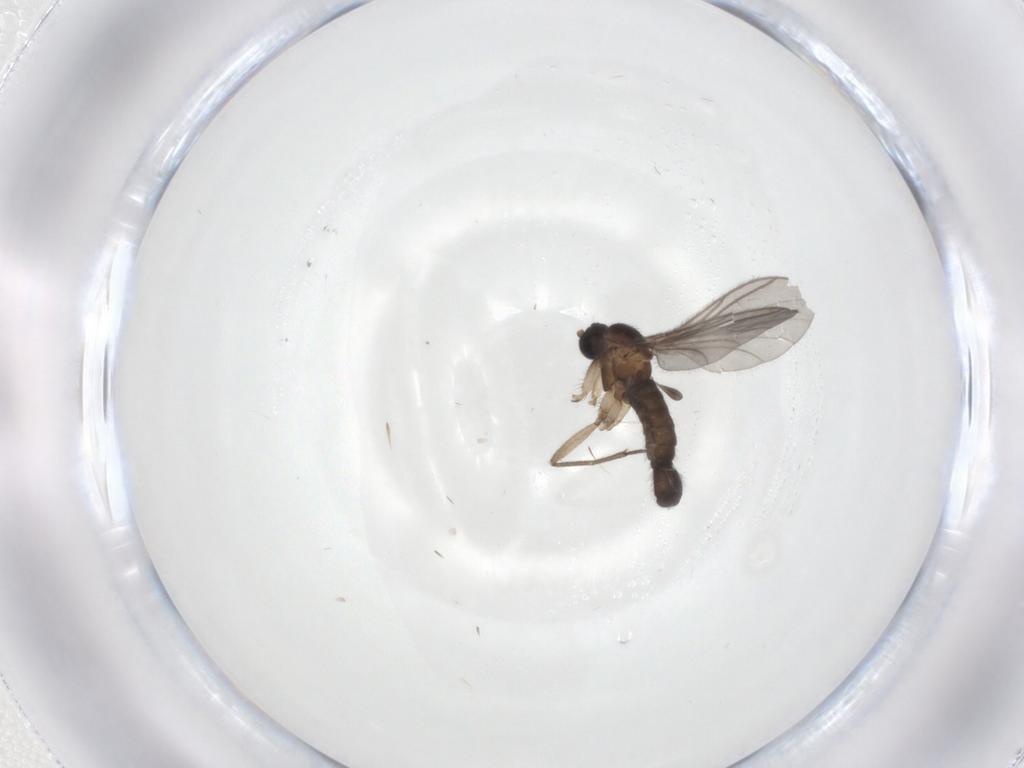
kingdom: Animalia
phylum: Arthropoda
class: Insecta
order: Diptera
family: Sciaridae
